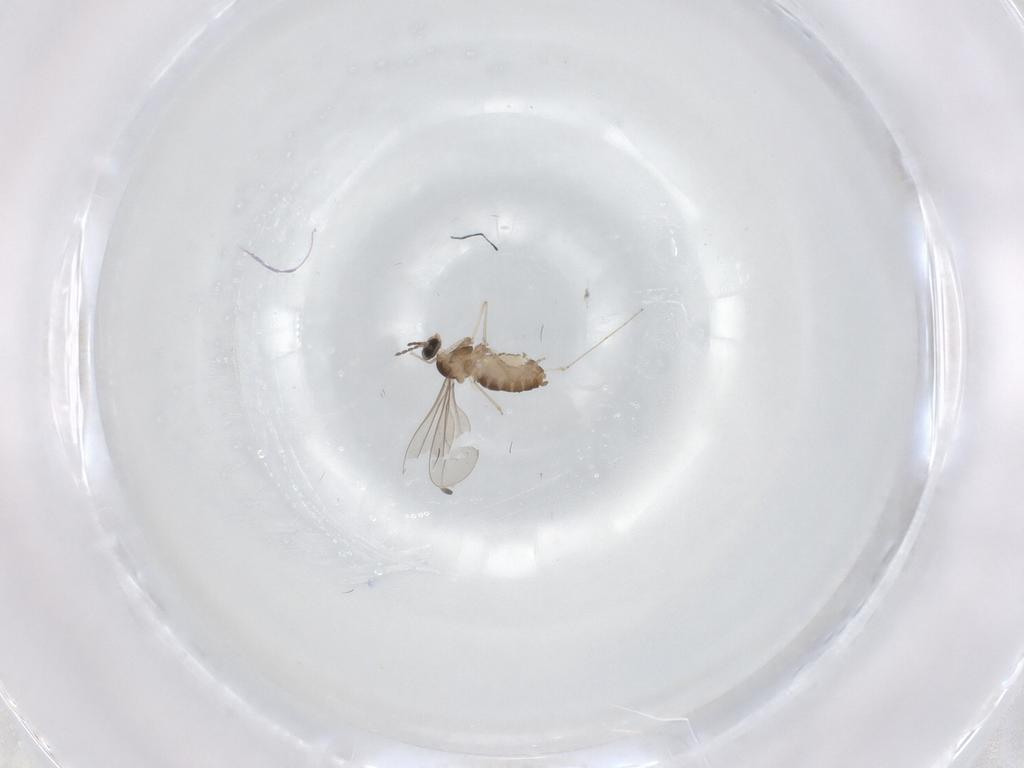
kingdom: Animalia
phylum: Arthropoda
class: Insecta
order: Diptera
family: Cecidomyiidae
